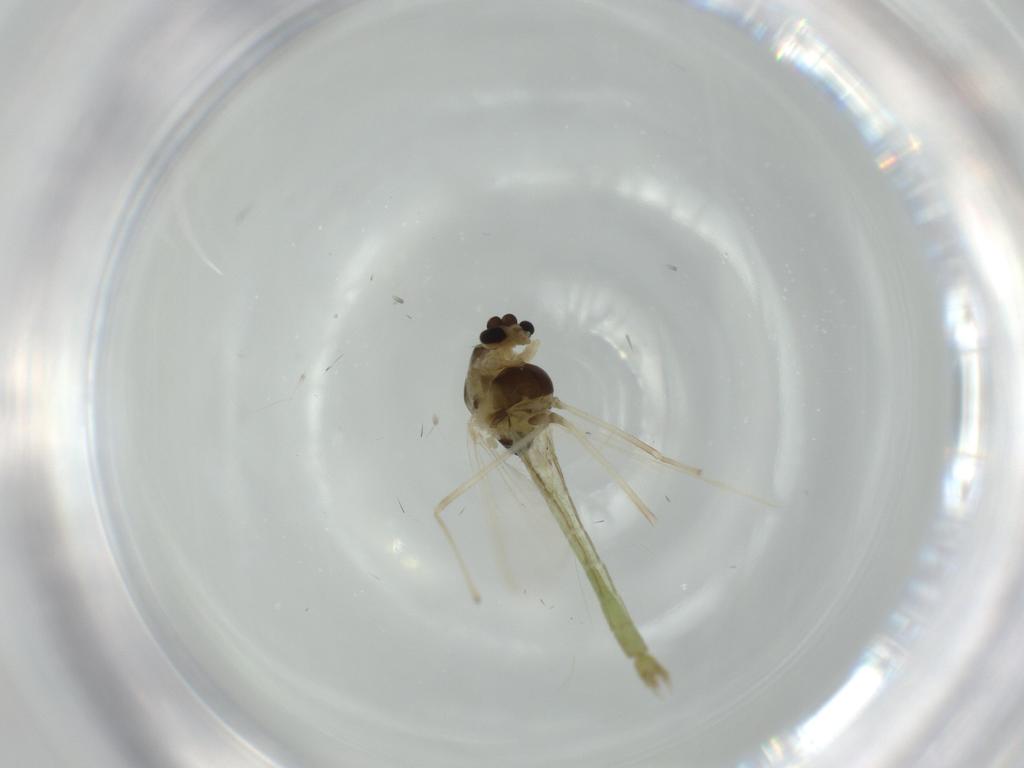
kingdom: Animalia
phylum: Arthropoda
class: Insecta
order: Diptera
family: Chironomidae
